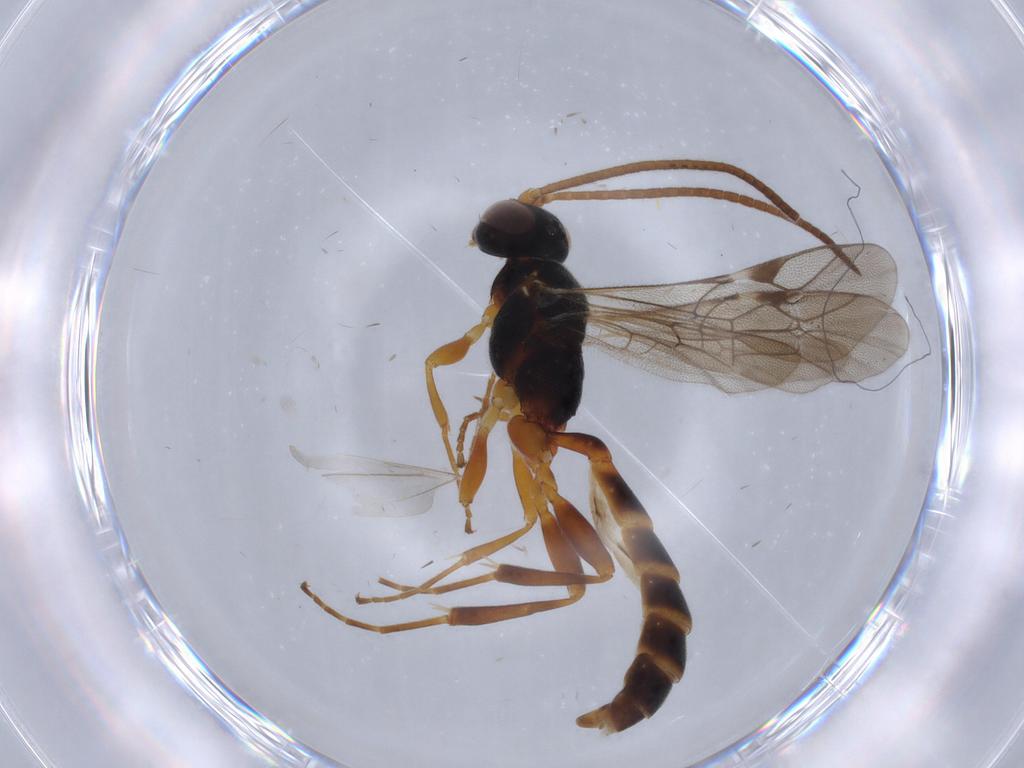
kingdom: Animalia
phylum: Arthropoda
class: Insecta
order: Hymenoptera
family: Ichneumonidae
